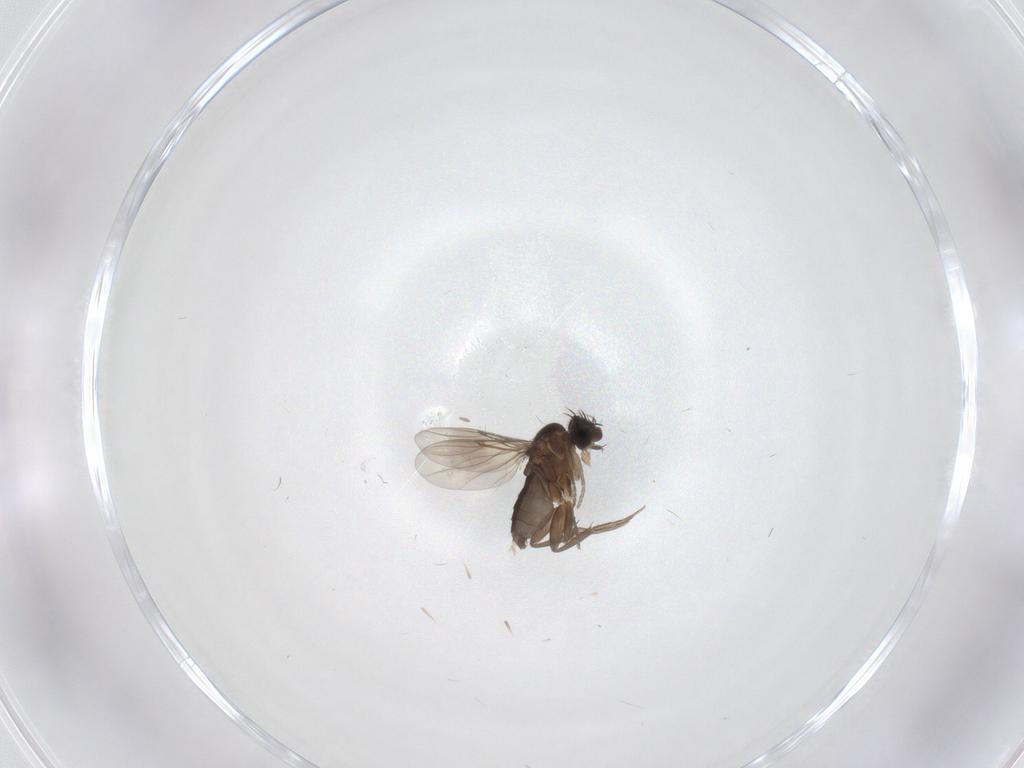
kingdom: Animalia
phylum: Arthropoda
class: Insecta
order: Diptera
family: Phoridae
